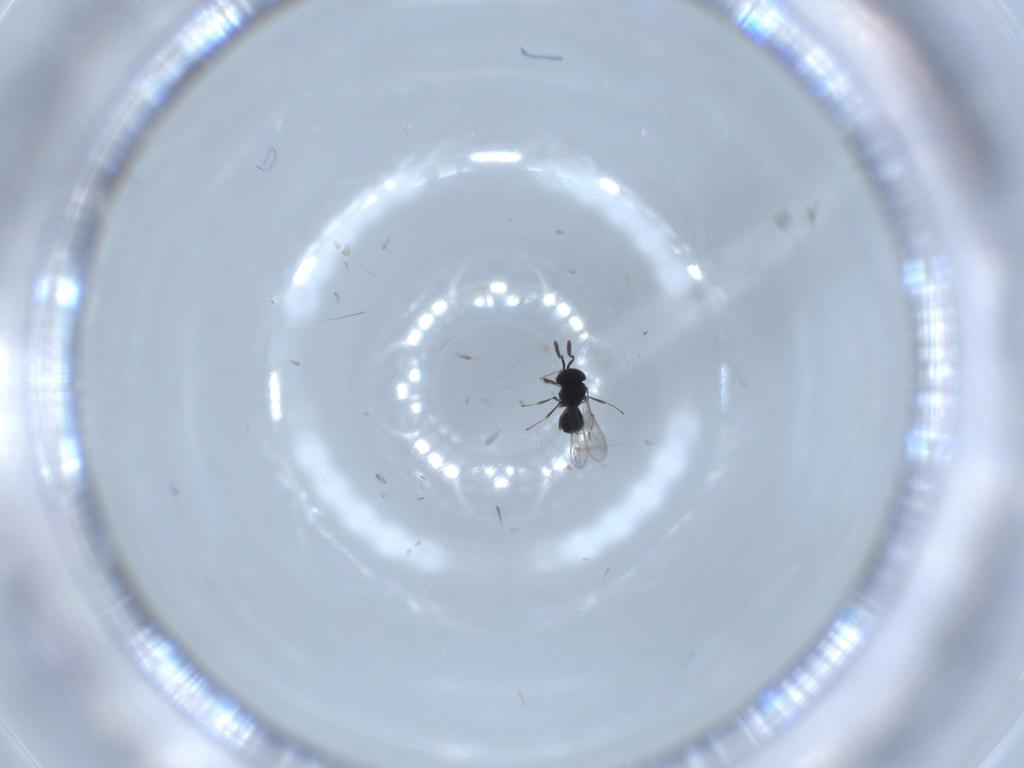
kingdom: Animalia
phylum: Arthropoda
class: Insecta
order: Hymenoptera
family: Scelionidae
